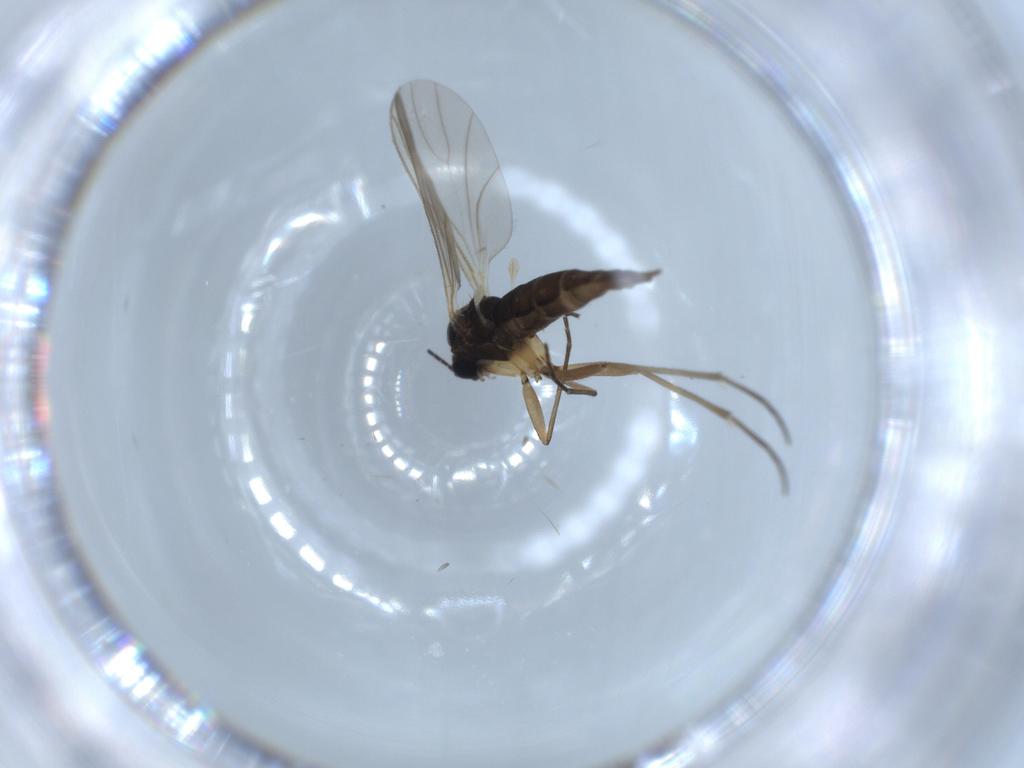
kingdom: Animalia
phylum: Arthropoda
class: Insecta
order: Diptera
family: Sciaridae
